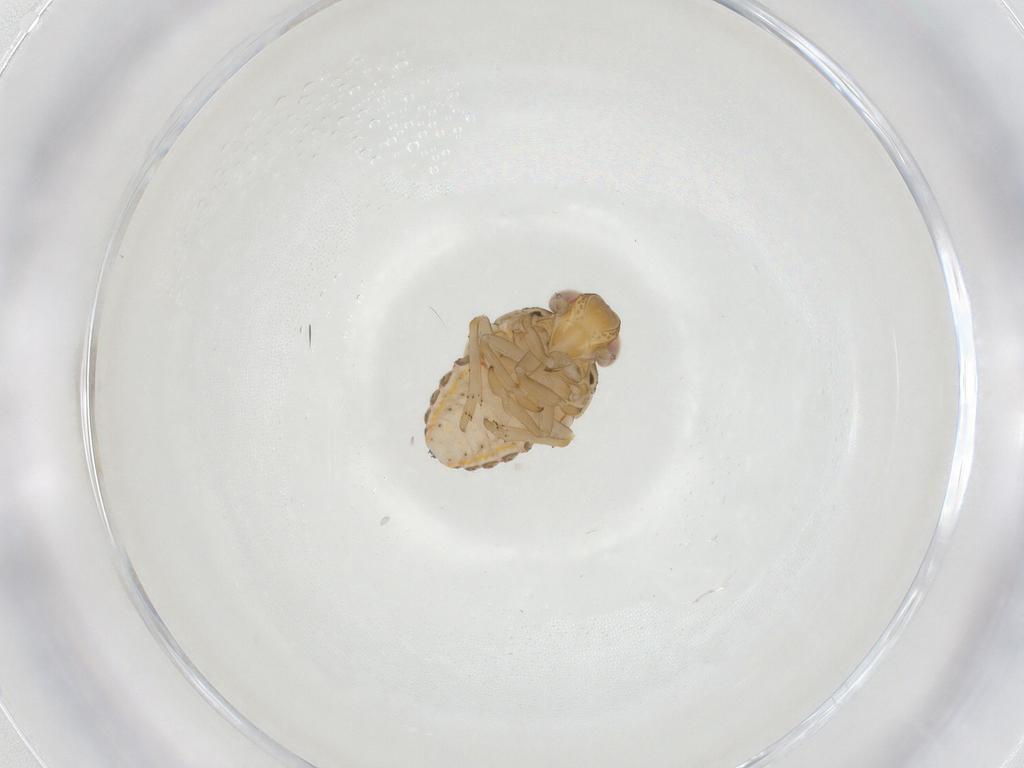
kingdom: Animalia
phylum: Arthropoda
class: Insecta
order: Hemiptera
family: Issidae
